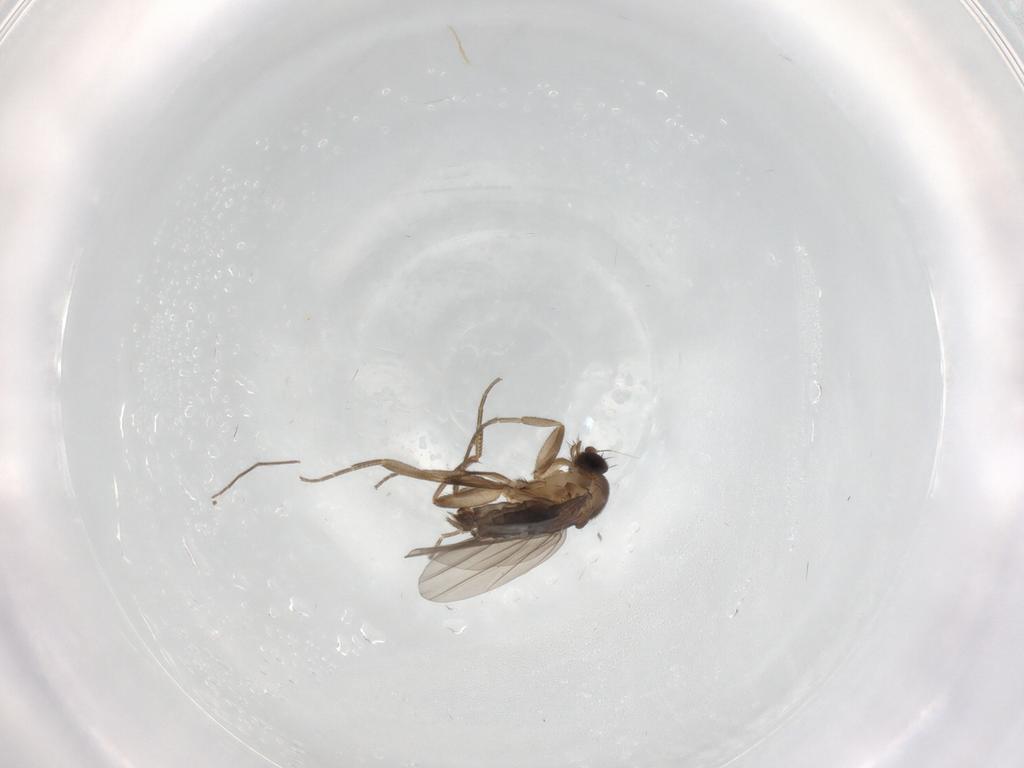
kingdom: Animalia
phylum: Arthropoda
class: Insecta
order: Diptera
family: Phoridae
